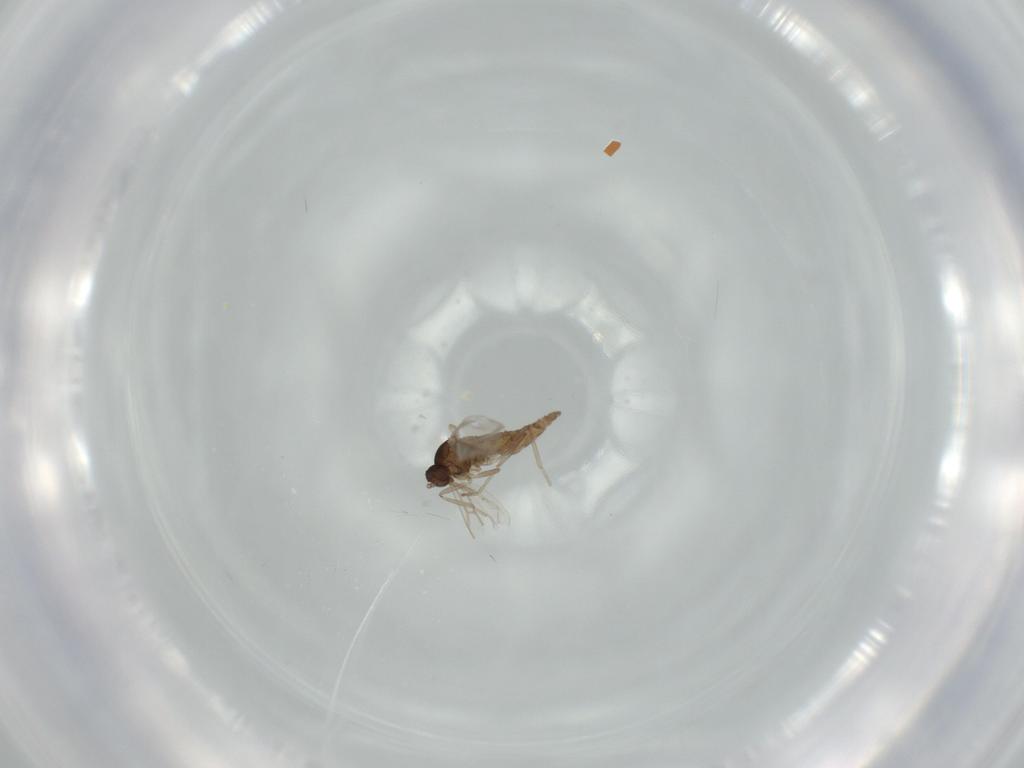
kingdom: Animalia
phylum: Arthropoda
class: Insecta
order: Diptera
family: Cecidomyiidae
